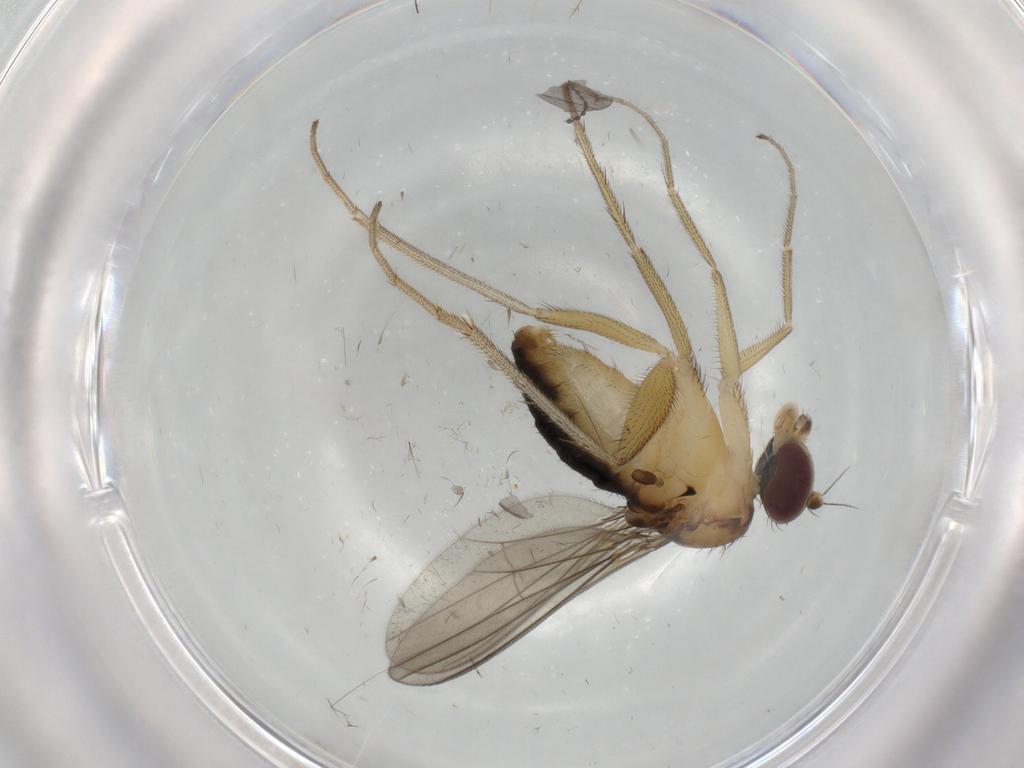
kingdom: Animalia
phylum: Arthropoda
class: Insecta
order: Diptera
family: Dolichopodidae
